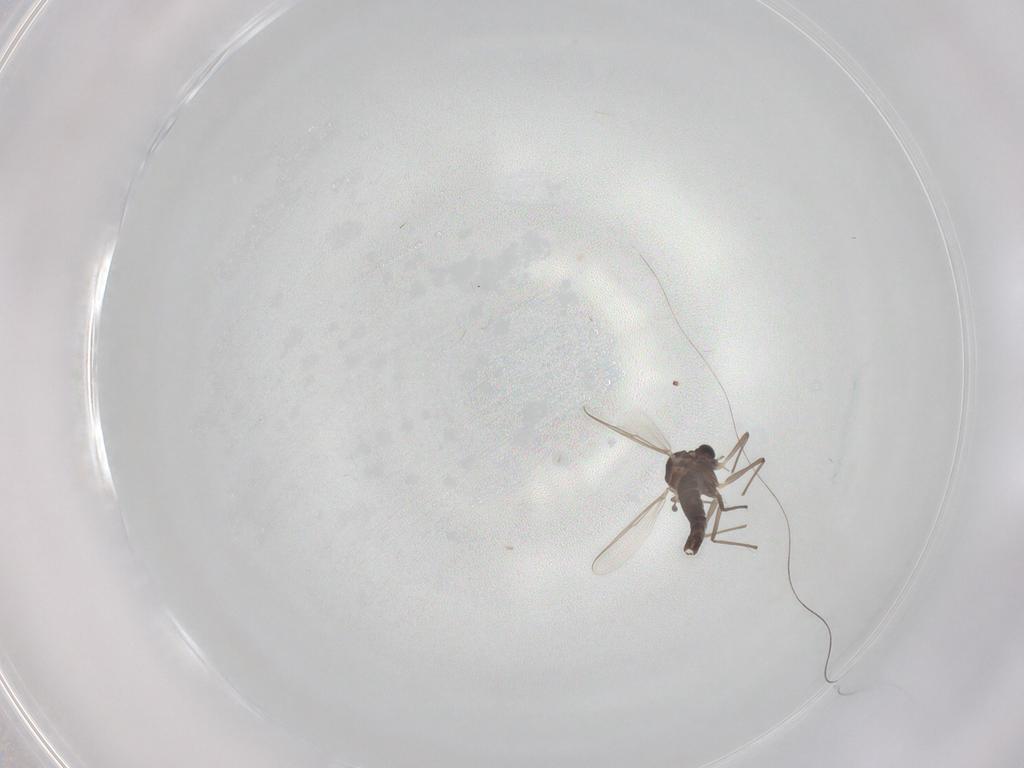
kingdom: Animalia
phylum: Arthropoda
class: Insecta
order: Diptera
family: Chironomidae
